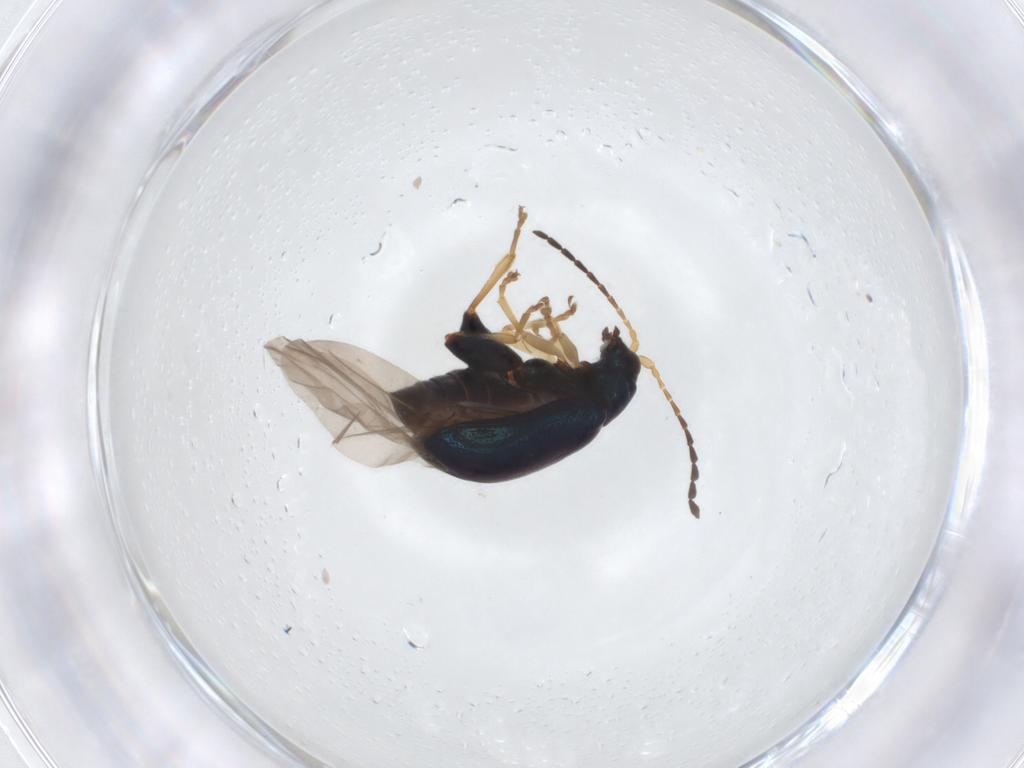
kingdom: Animalia
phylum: Arthropoda
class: Insecta
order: Coleoptera
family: Chrysomelidae
